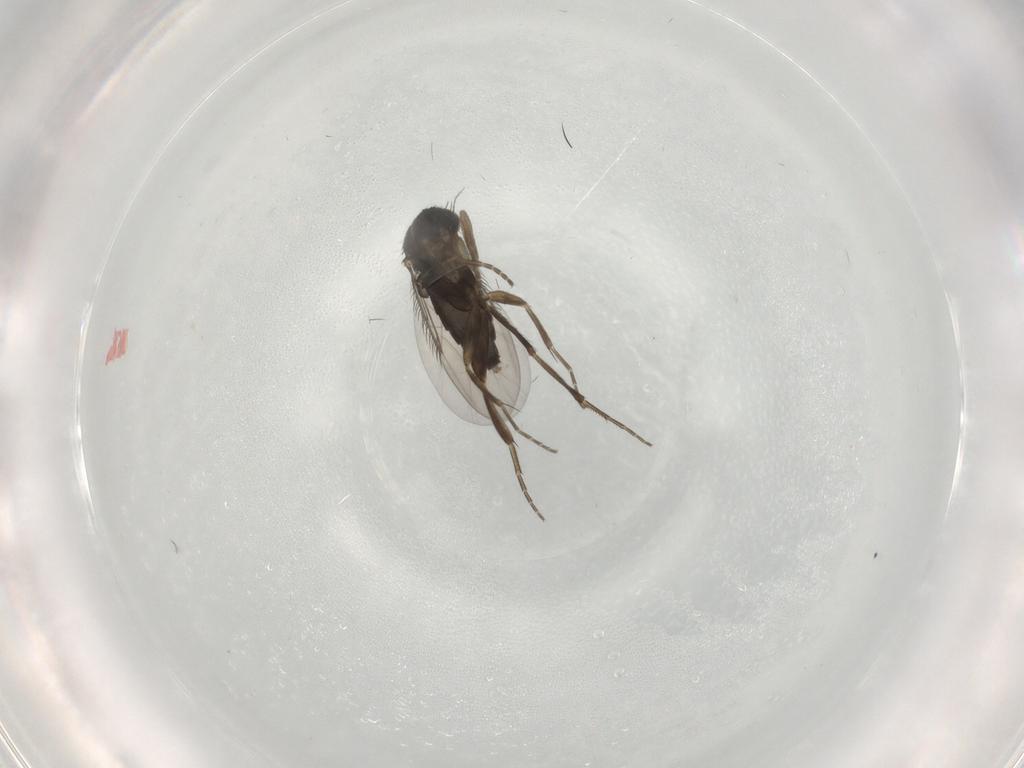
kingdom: Animalia
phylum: Arthropoda
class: Insecta
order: Diptera
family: Phoridae
